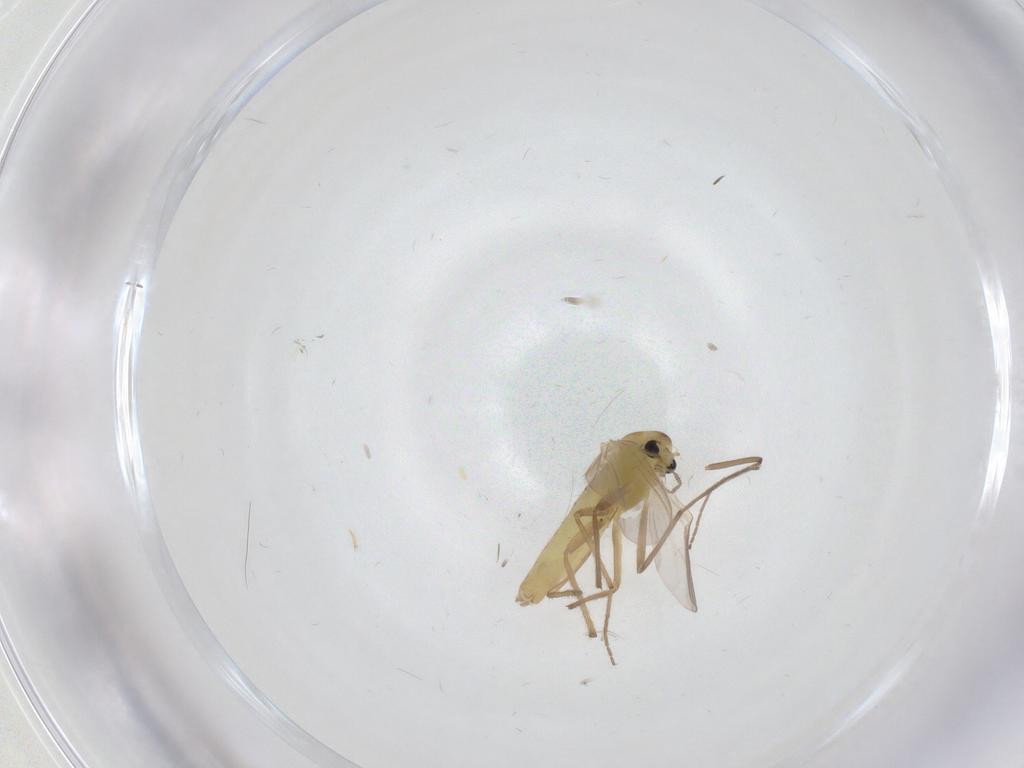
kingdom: Animalia
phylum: Arthropoda
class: Insecta
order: Diptera
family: Chironomidae
